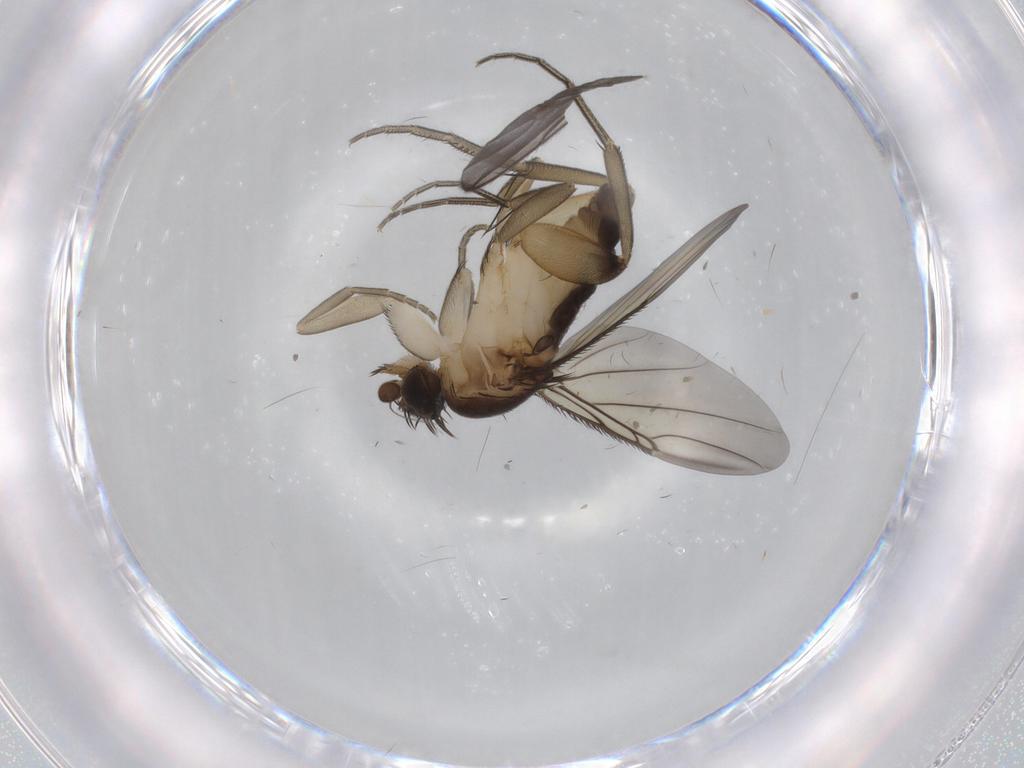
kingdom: Animalia
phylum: Arthropoda
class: Insecta
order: Diptera
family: Phoridae
